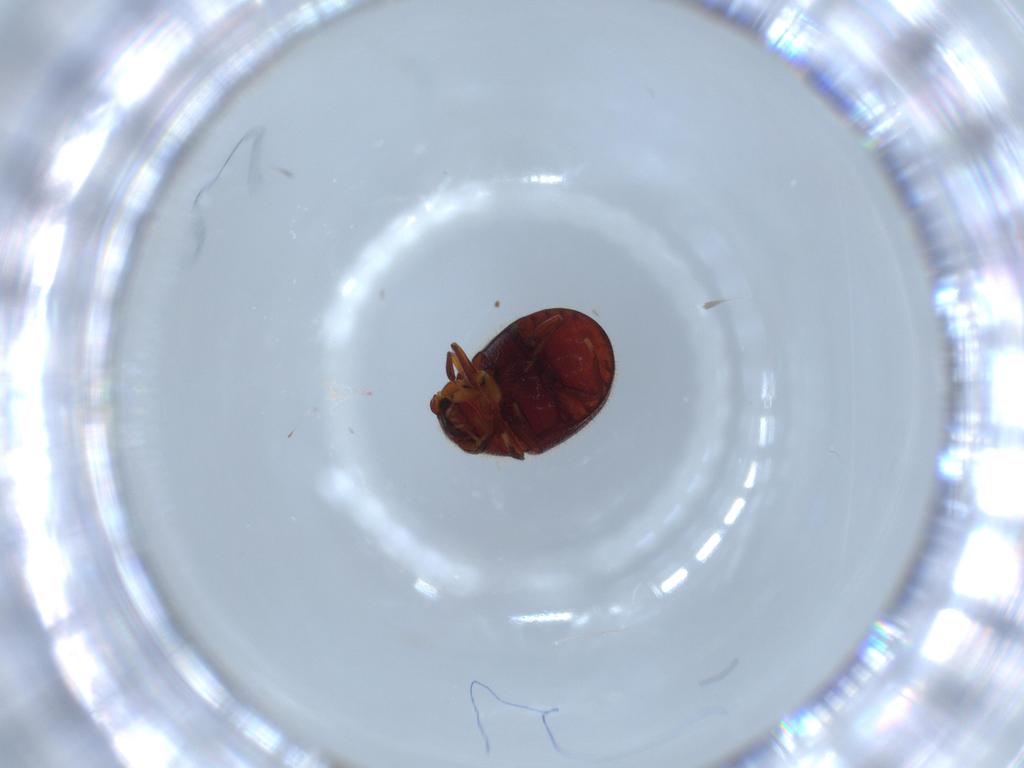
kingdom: Animalia
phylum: Arthropoda
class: Insecta
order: Coleoptera
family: Ptinidae
